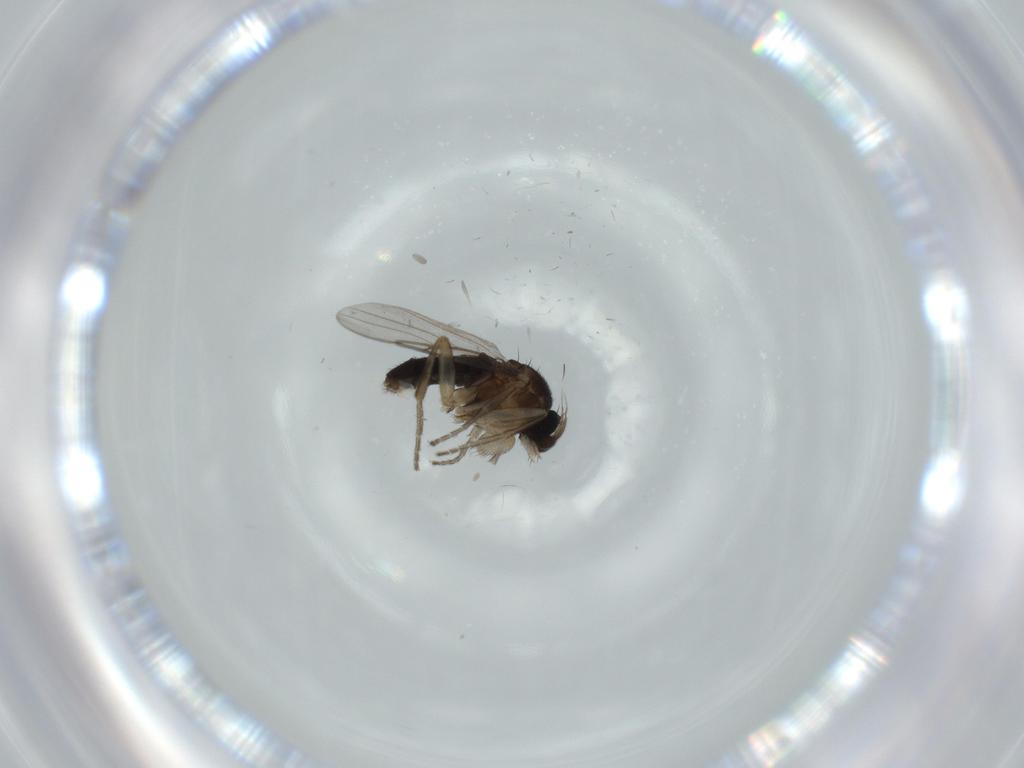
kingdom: Animalia
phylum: Arthropoda
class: Insecta
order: Diptera
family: Phoridae
